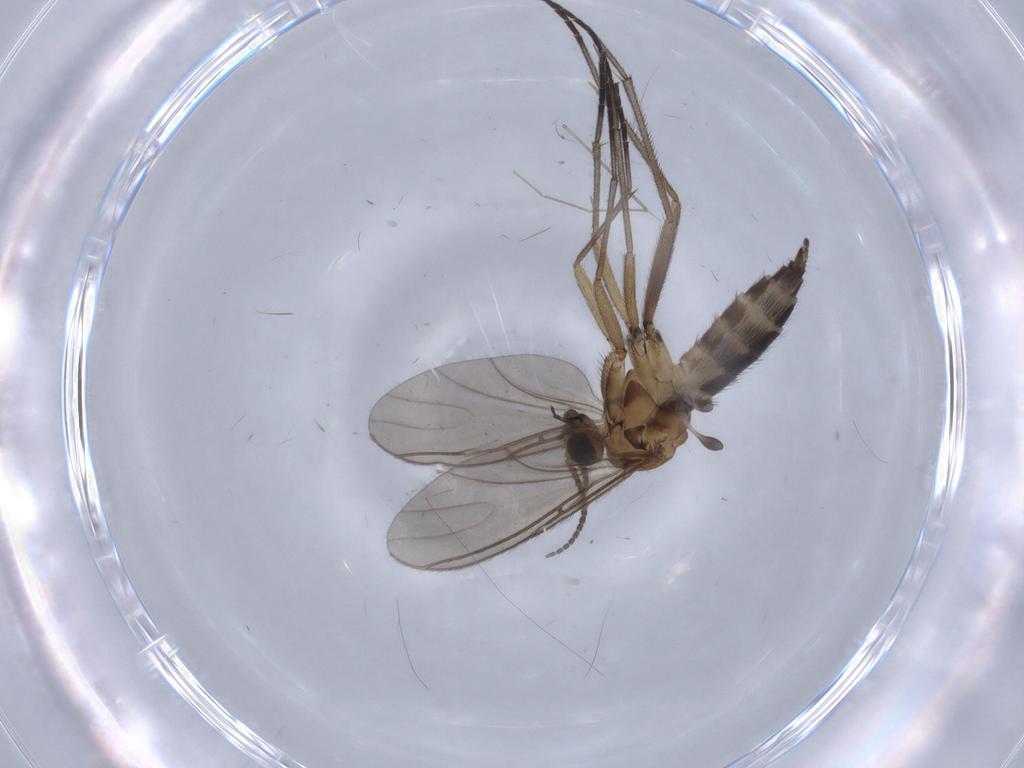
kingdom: Animalia
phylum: Arthropoda
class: Insecta
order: Diptera
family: Sciaridae
